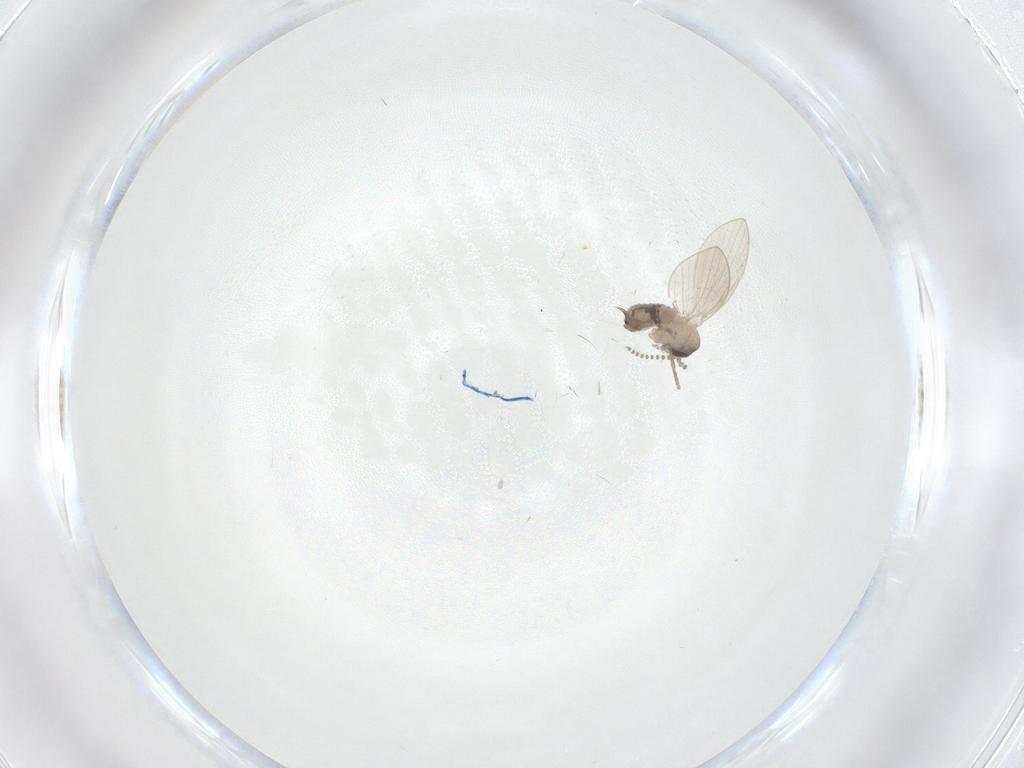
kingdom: Animalia
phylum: Arthropoda
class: Insecta
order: Diptera
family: Psychodidae
